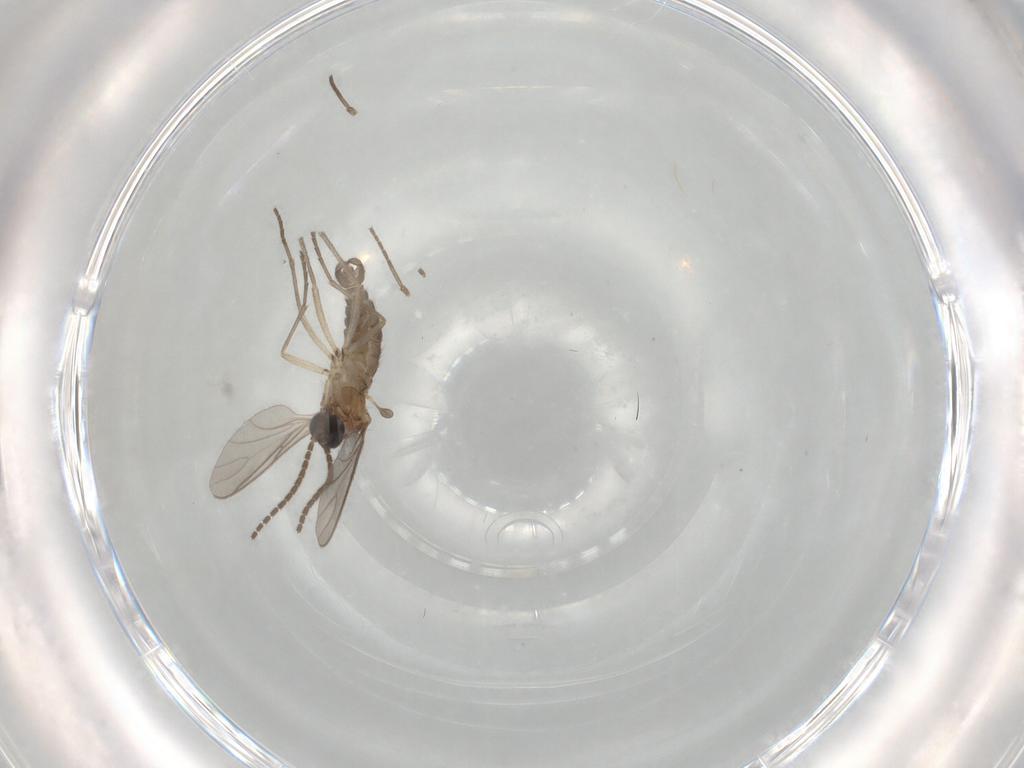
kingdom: Animalia
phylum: Arthropoda
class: Insecta
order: Diptera
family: Sciaridae
